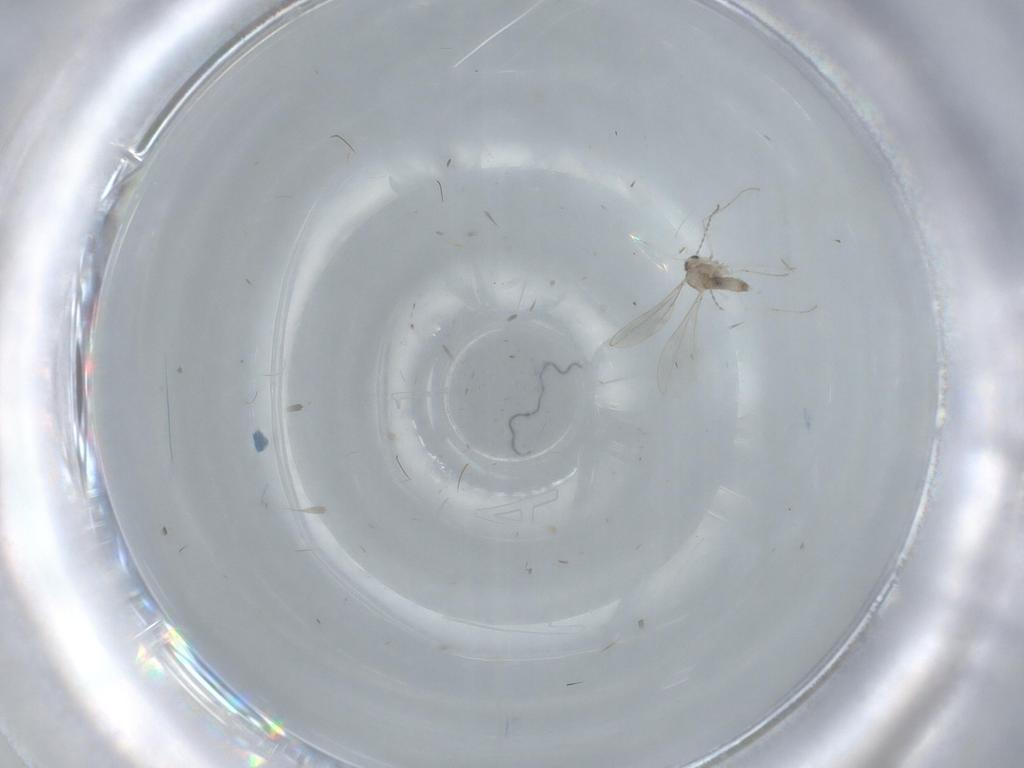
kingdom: Animalia
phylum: Arthropoda
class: Insecta
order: Diptera
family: Dolichopodidae
